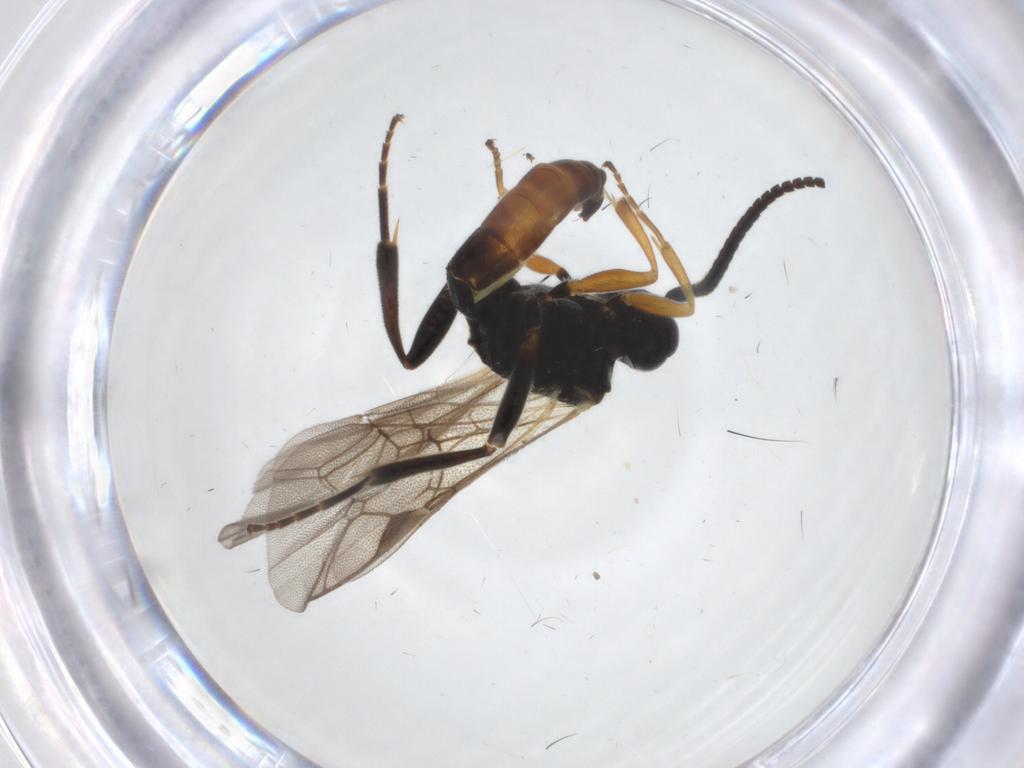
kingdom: Animalia
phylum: Arthropoda
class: Insecta
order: Hymenoptera
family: Ichneumonidae
